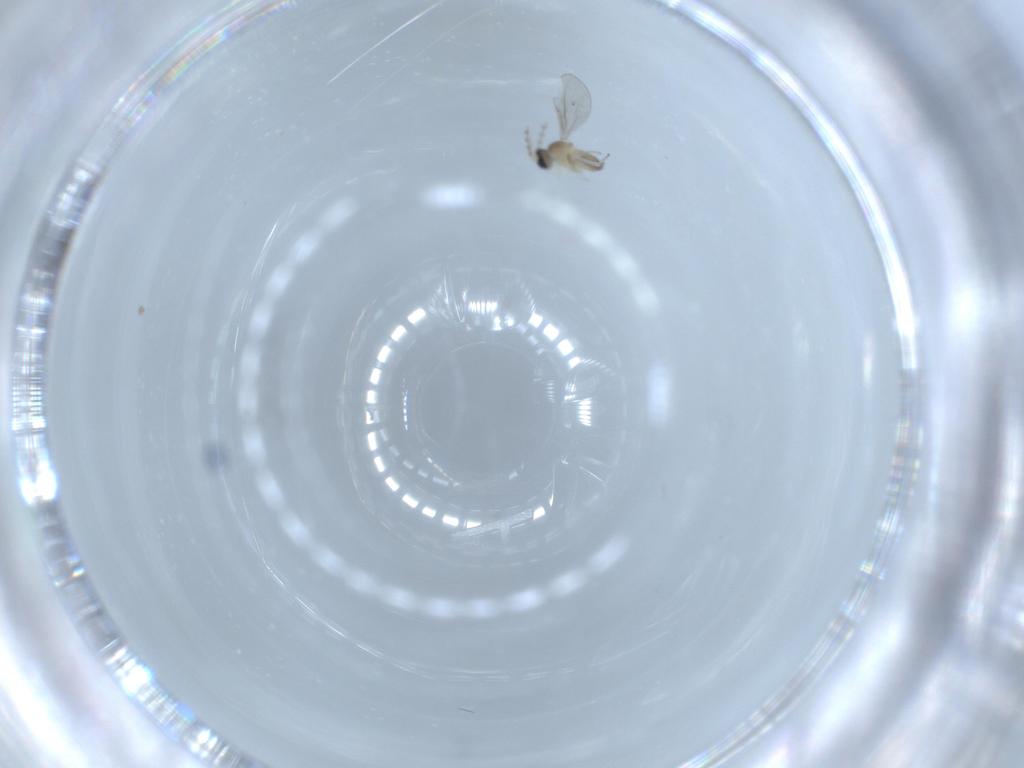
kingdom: Animalia
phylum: Arthropoda
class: Insecta
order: Diptera
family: Cecidomyiidae
